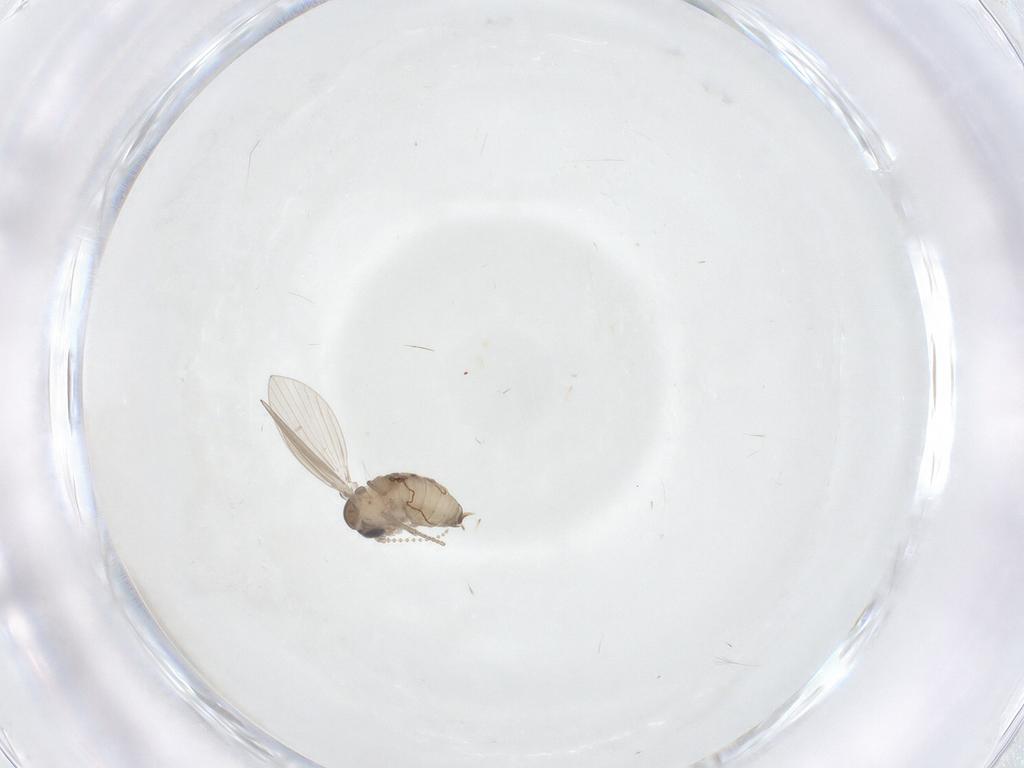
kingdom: Animalia
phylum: Arthropoda
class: Insecta
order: Diptera
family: Psychodidae
